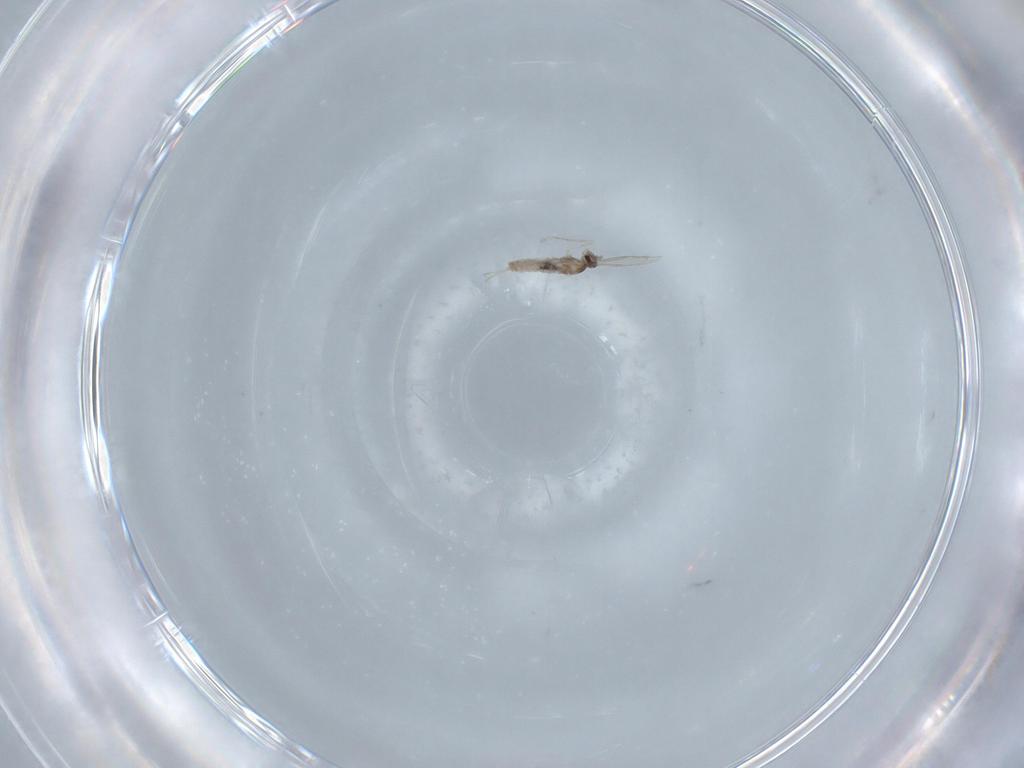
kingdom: Animalia
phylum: Arthropoda
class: Insecta
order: Diptera
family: Cecidomyiidae
